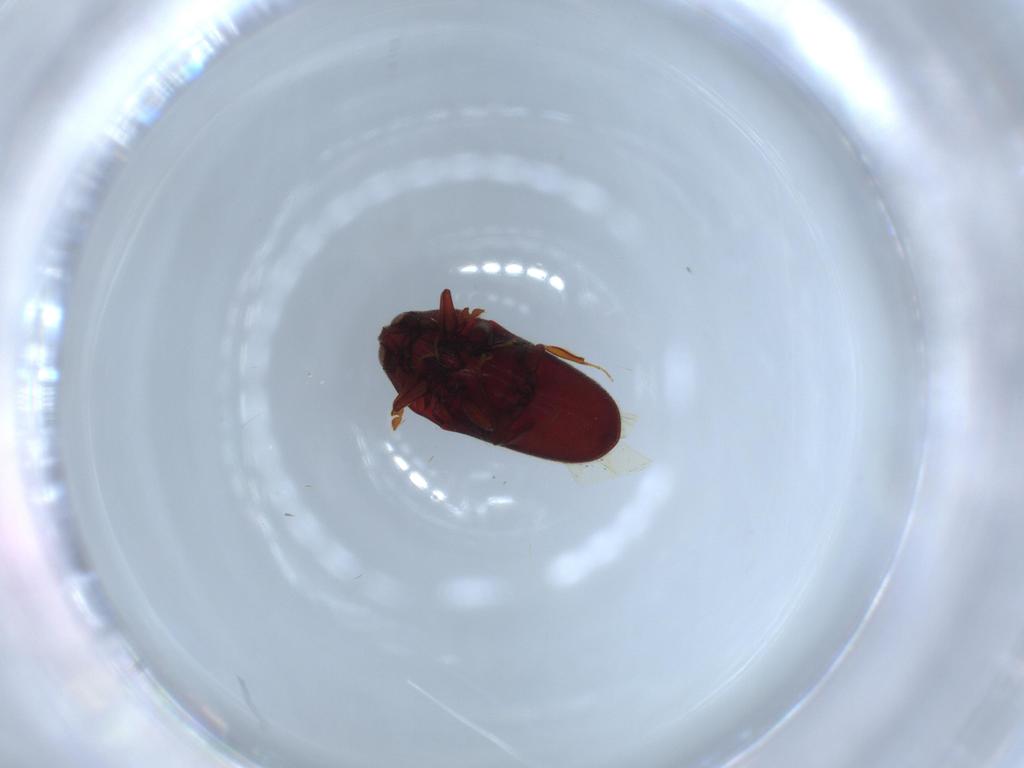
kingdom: Animalia
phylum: Arthropoda
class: Insecta
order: Coleoptera
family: Throscidae
